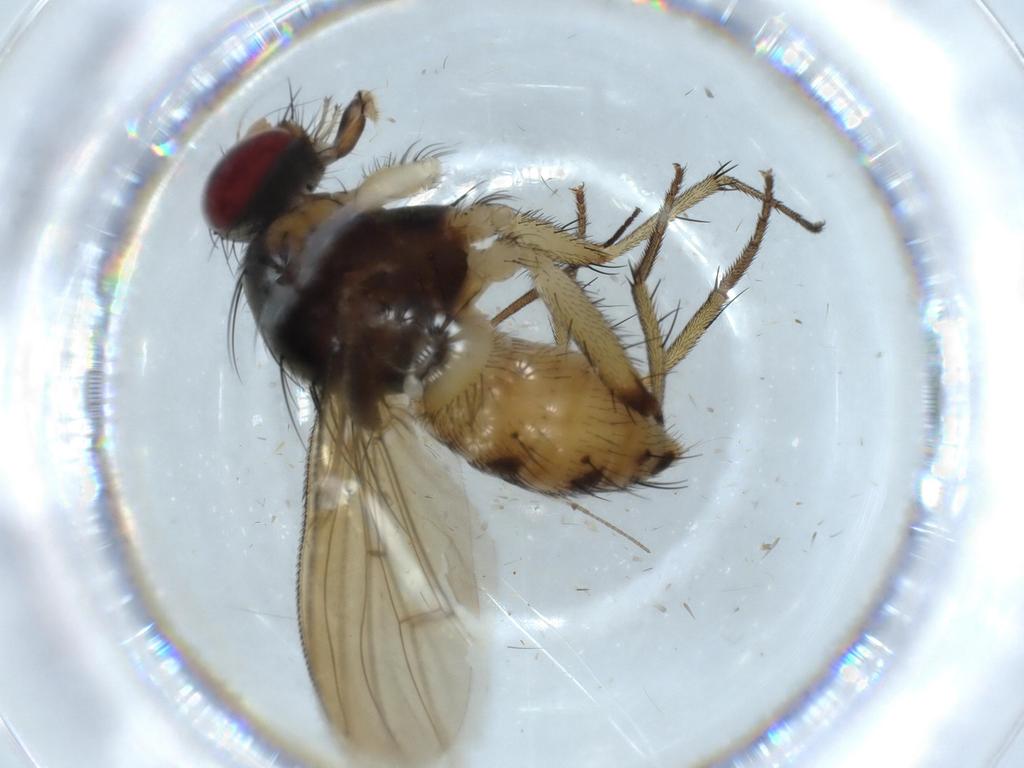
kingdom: Animalia
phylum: Arthropoda
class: Insecta
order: Diptera
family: Muscidae
